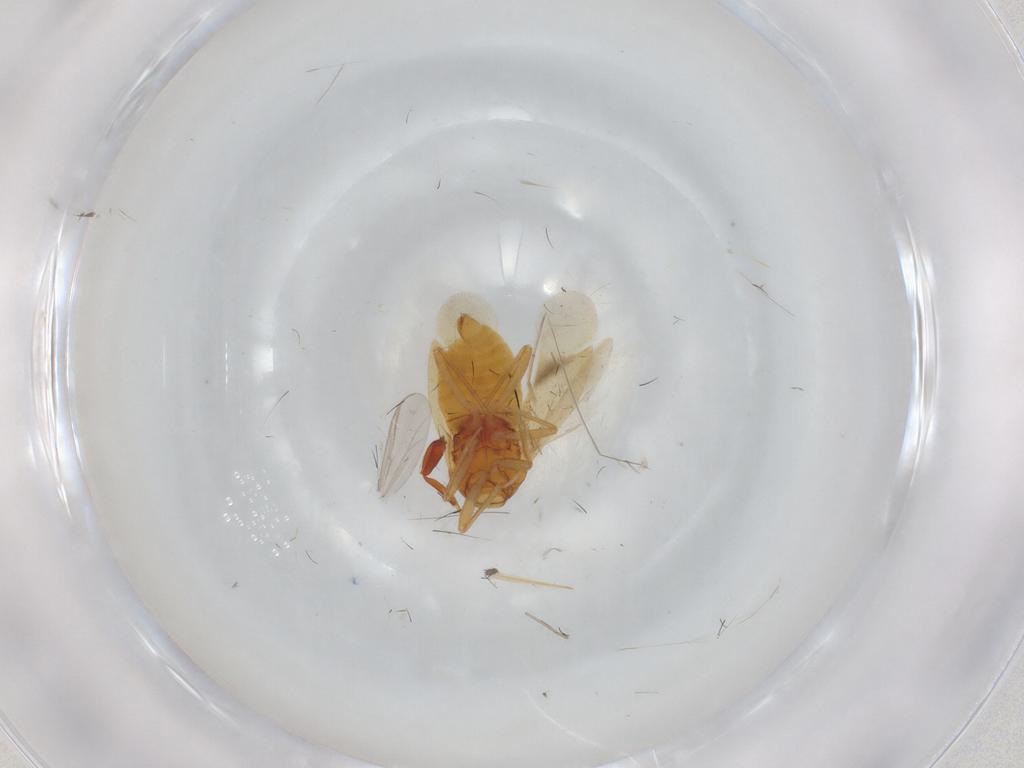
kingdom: Animalia
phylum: Arthropoda
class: Insecta
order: Hemiptera
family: Anthocoridae
